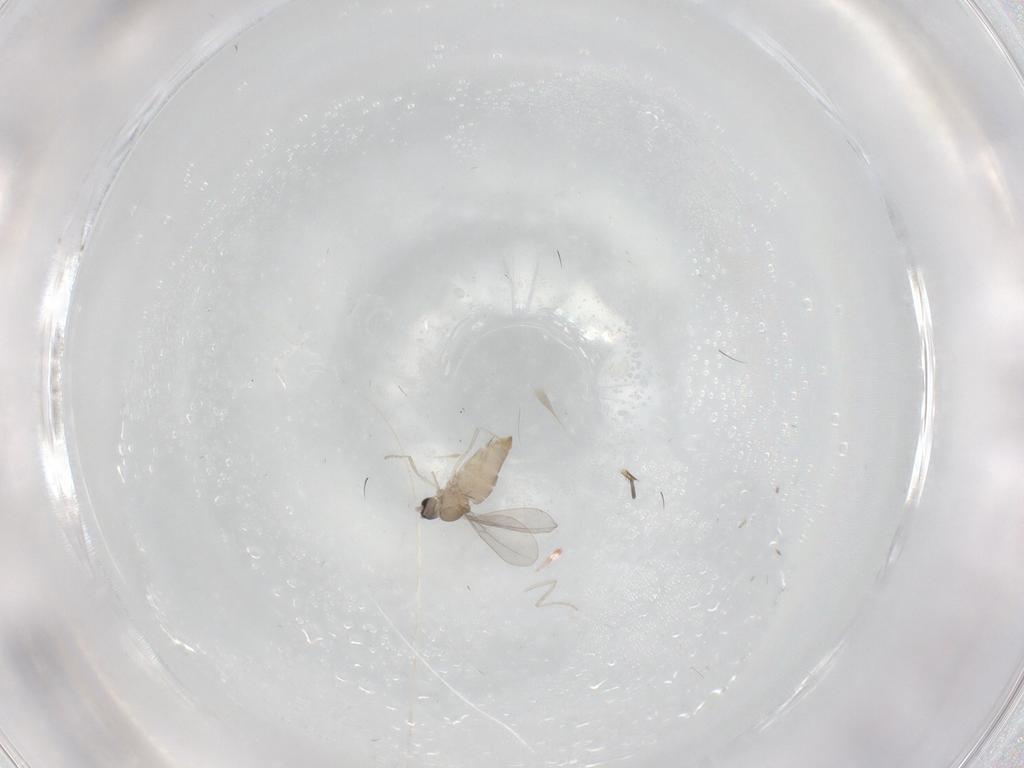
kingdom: Animalia
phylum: Arthropoda
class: Insecta
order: Diptera
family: Cecidomyiidae
